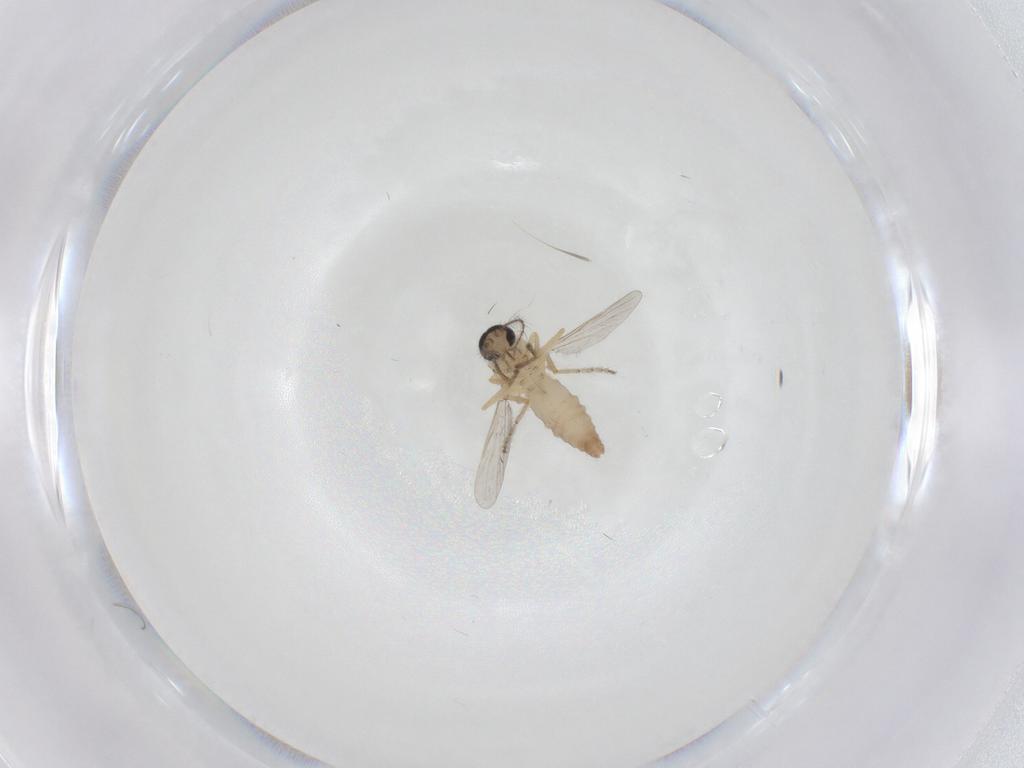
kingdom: Animalia
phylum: Arthropoda
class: Insecta
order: Diptera
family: Ceratopogonidae
